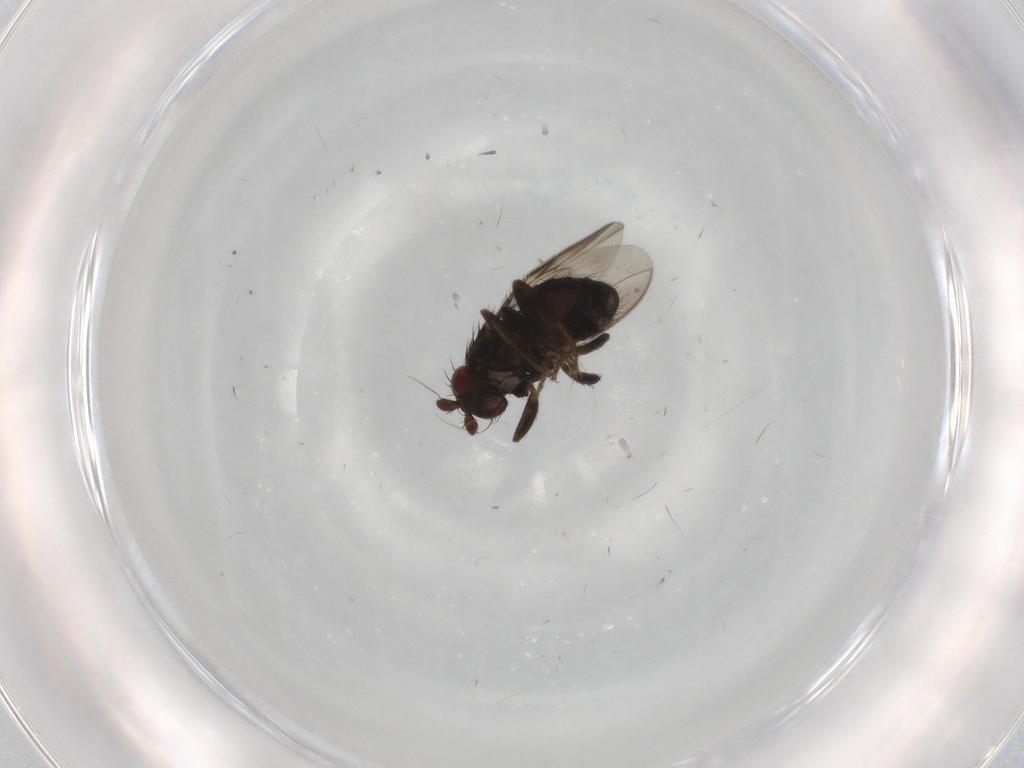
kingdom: Animalia
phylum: Arthropoda
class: Insecta
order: Diptera
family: Sphaeroceridae
